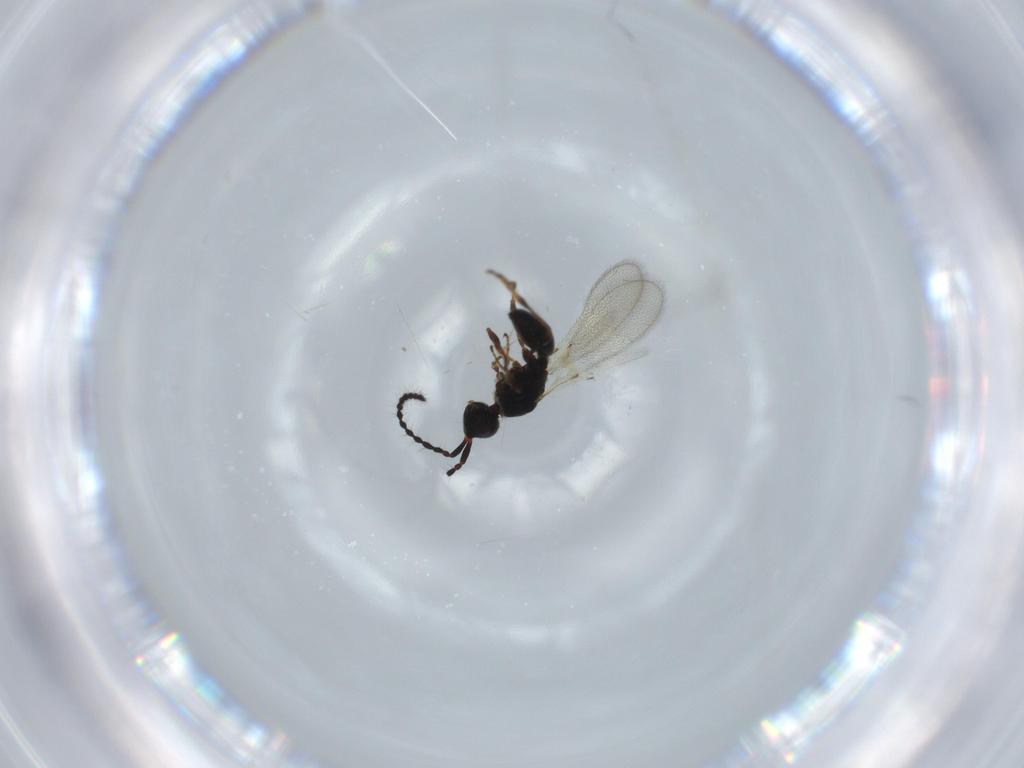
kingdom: Animalia
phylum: Arthropoda
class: Insecta
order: Hymenoptera
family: Diapriidae
